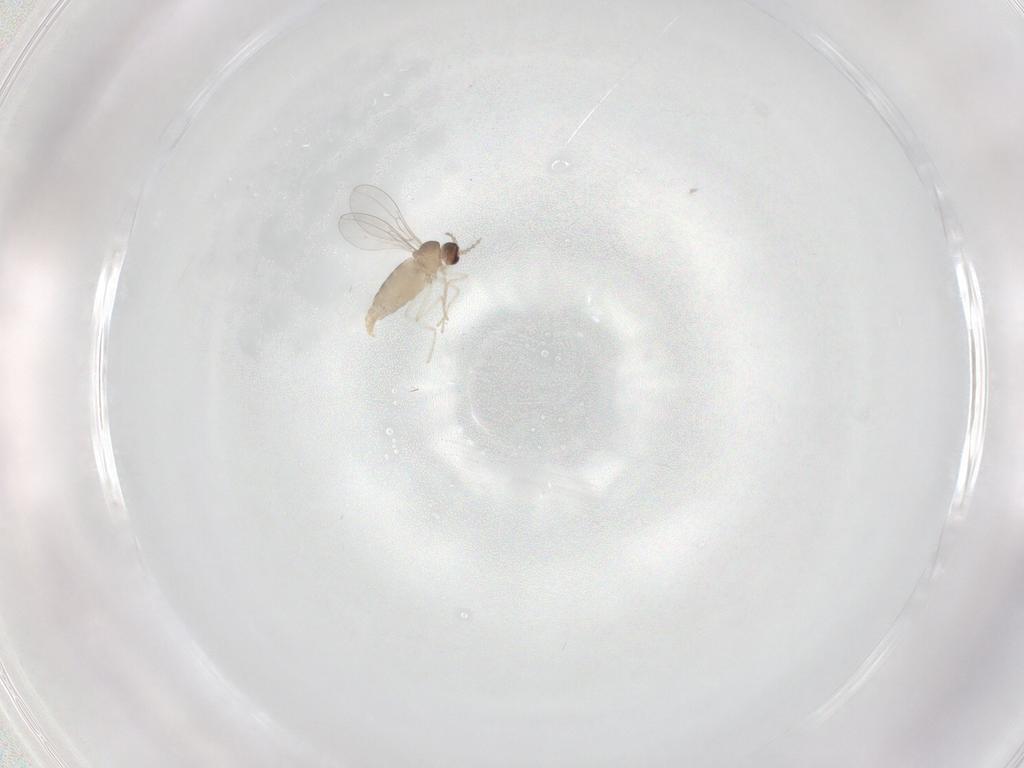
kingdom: Animalia
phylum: Arthropoda
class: Insecta
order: Diptera
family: Cecidomyiidae
